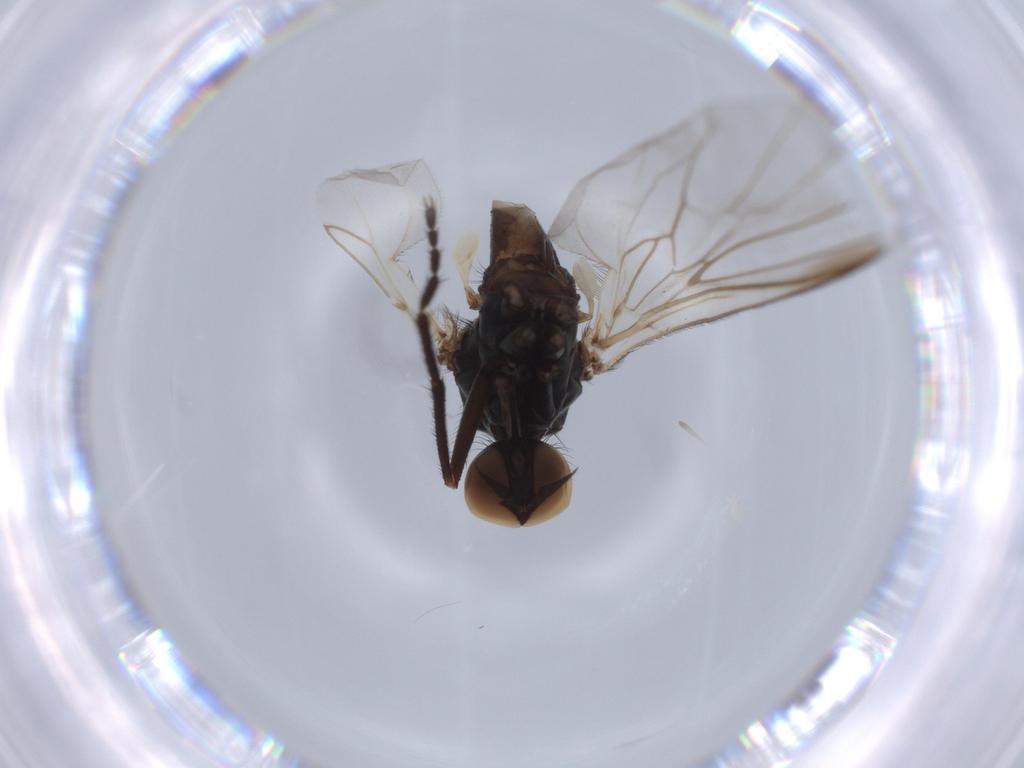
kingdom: Animalia
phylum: Arthropoda
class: Insecta
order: Diptera
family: Empididae
